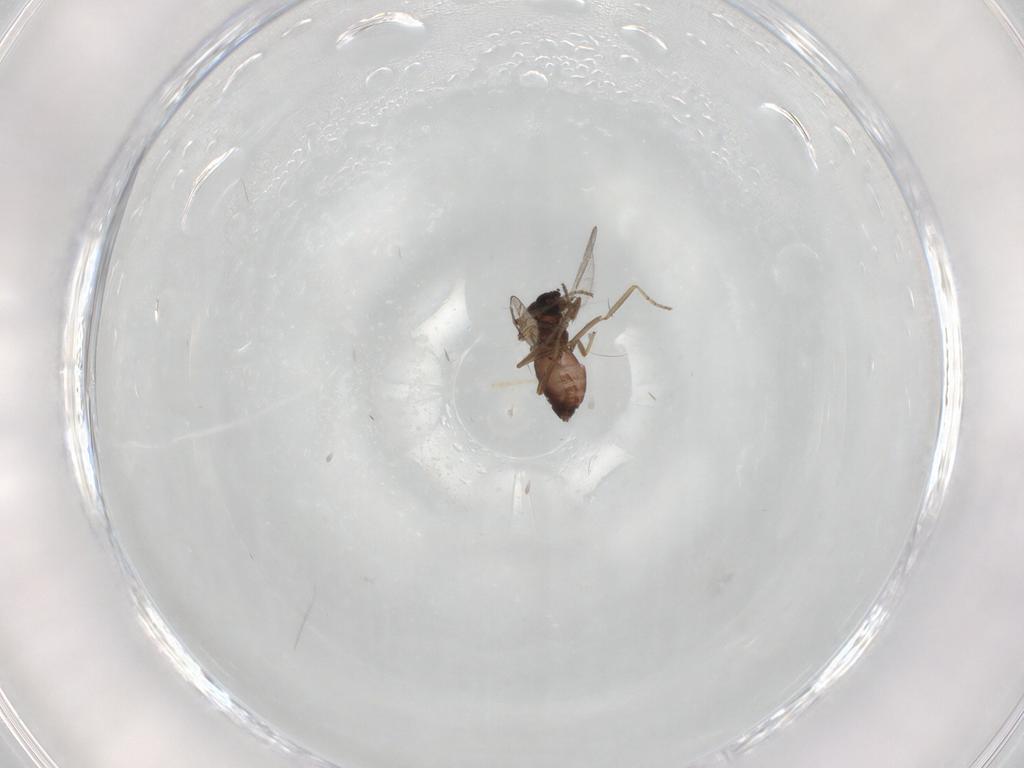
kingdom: Animalia
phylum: Arthropoda
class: Insecta
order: Diptera
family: Ceratopogonidae
